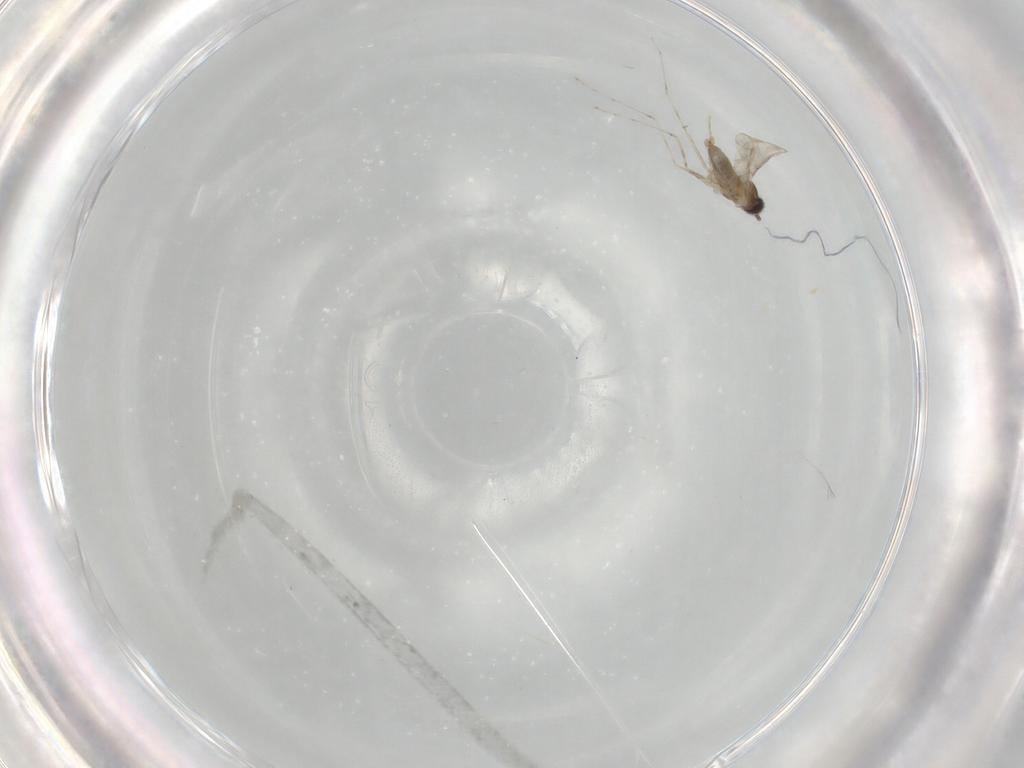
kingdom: Animalia
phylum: Arthropoda
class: Insecta
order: Diptera
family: Cecidomyiidae
